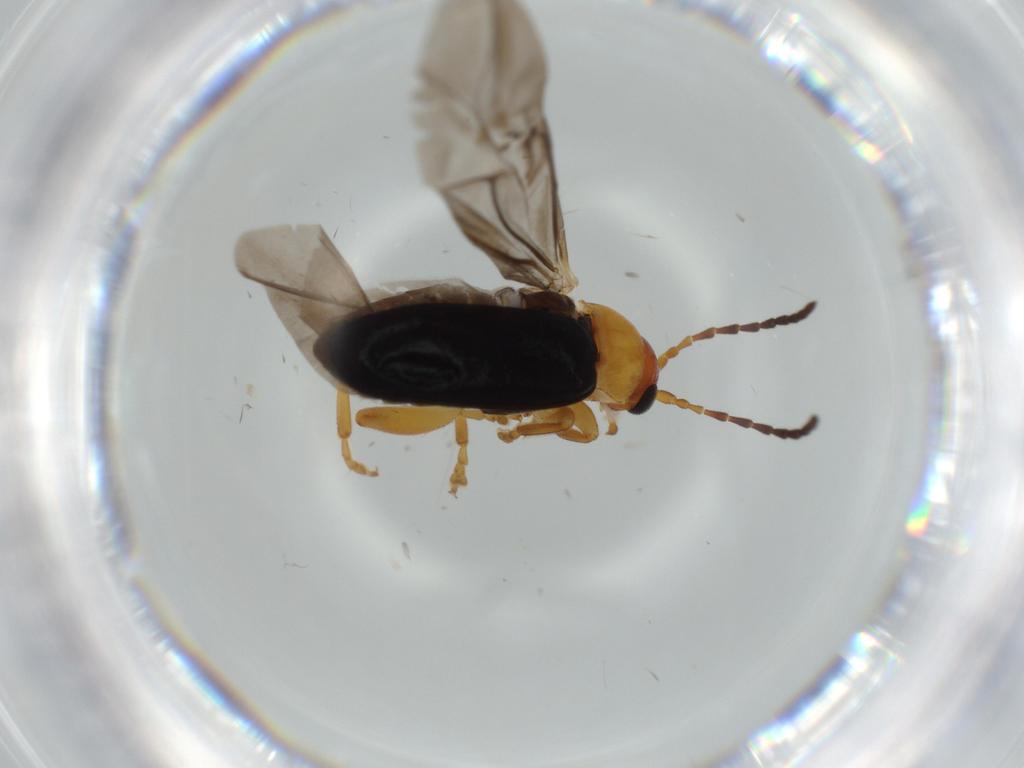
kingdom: Animalia
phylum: Arthropoda
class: Insecta
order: Coleoptera
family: Chrysomelidae
